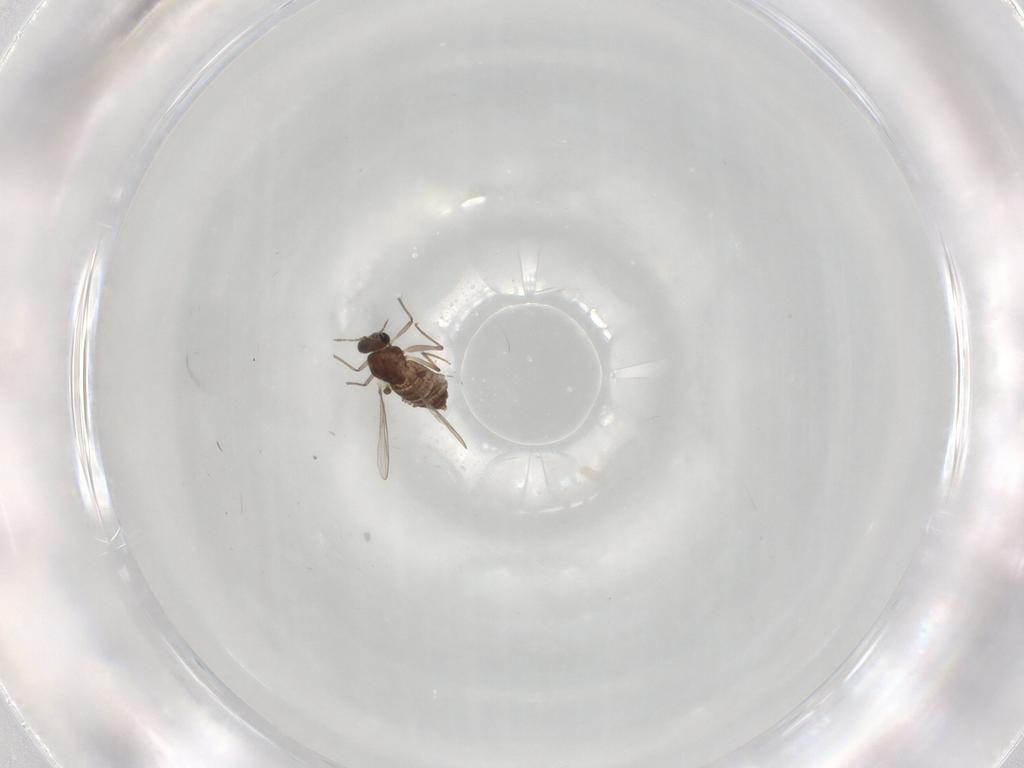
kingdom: Animalia
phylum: Arthropoda
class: Insecta
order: Diptera
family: Chironomidae
